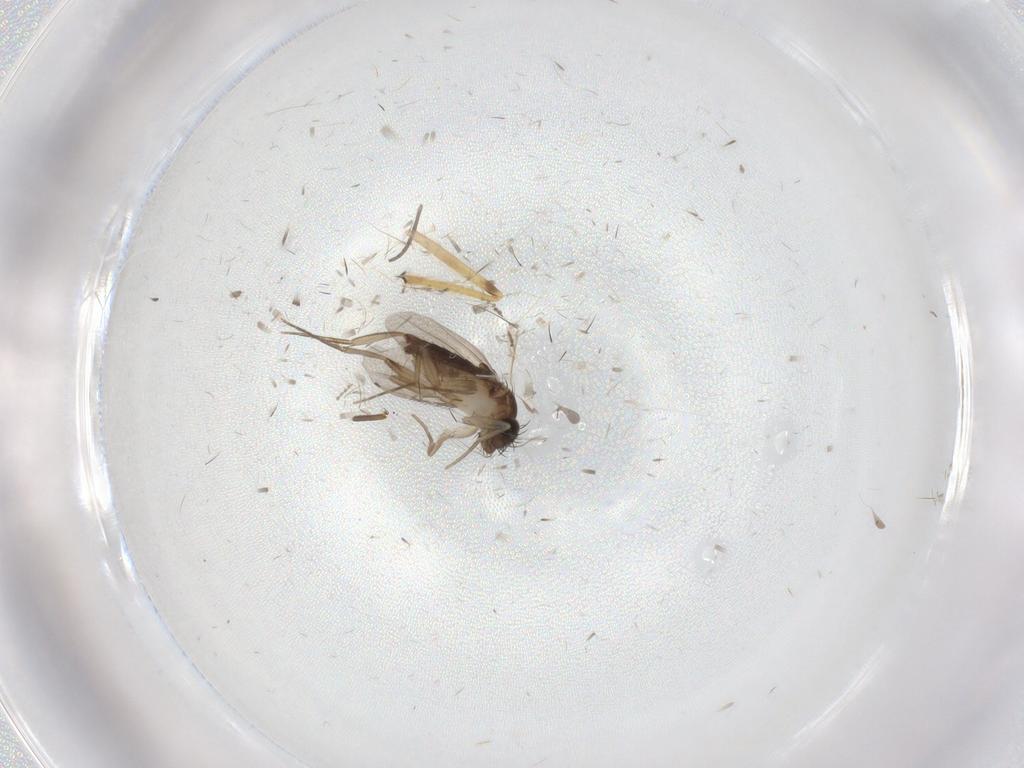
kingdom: Animalia
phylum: Arthropoda
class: Insecta
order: Diptera
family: Phoridae
